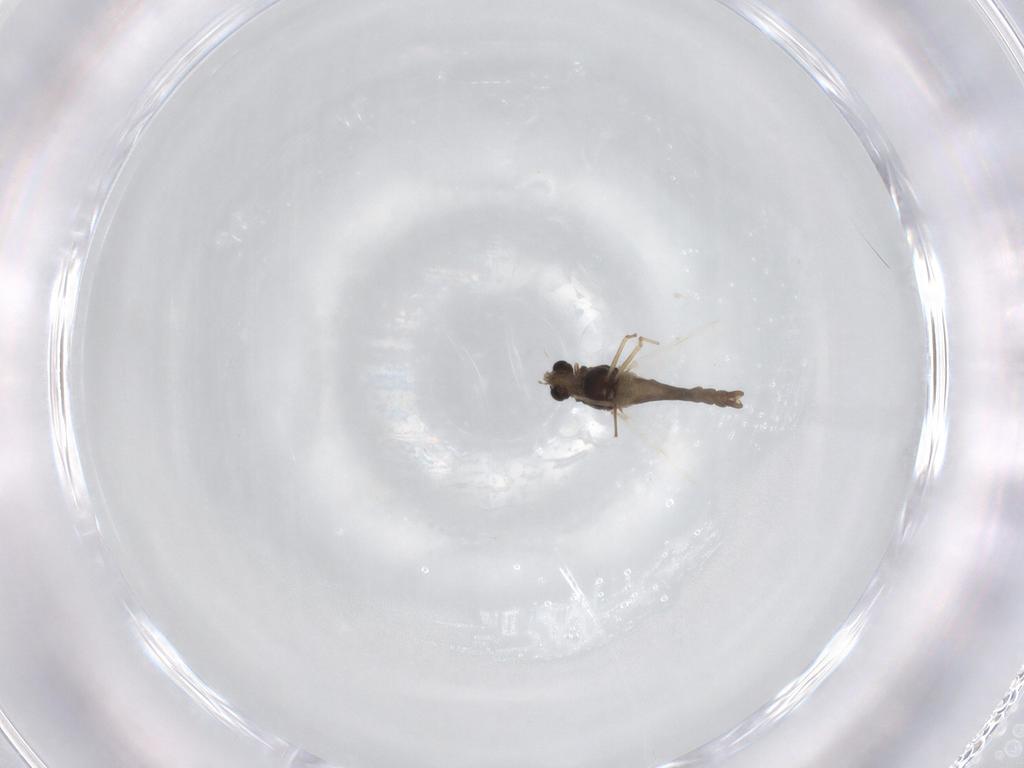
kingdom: Animalia
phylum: Arthropoda
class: Insecta
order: Diptera
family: Chironomidae
